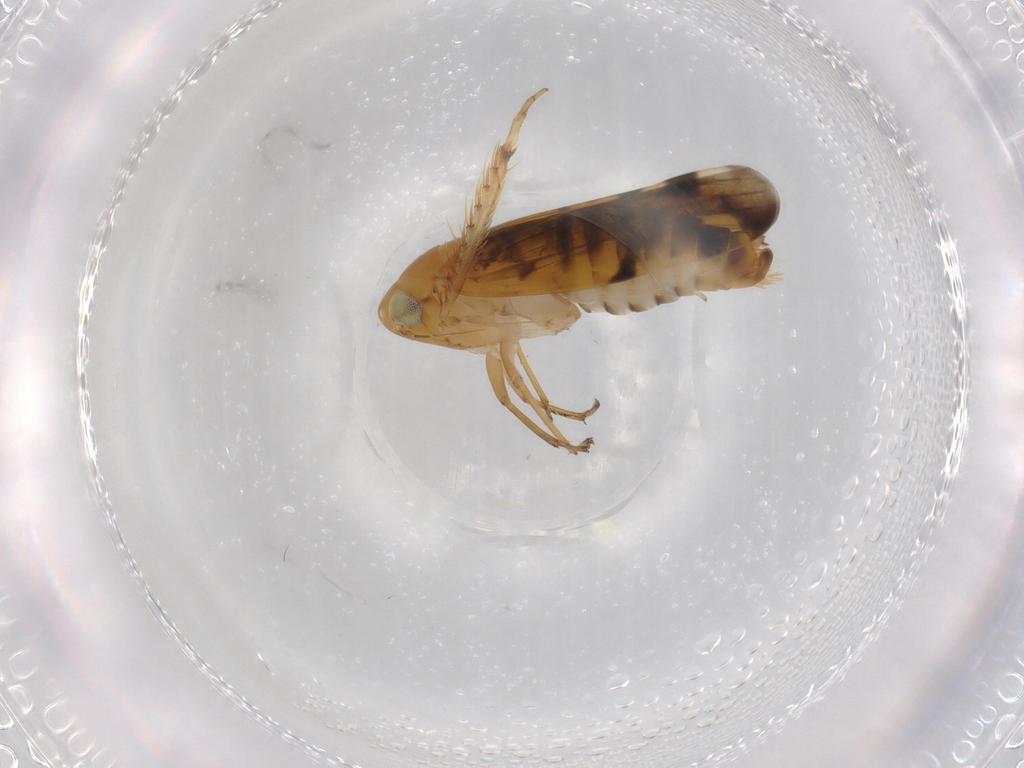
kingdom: Animalia
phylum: Arthropoda
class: Insecta
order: Hemiptera
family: Cicadellidae
